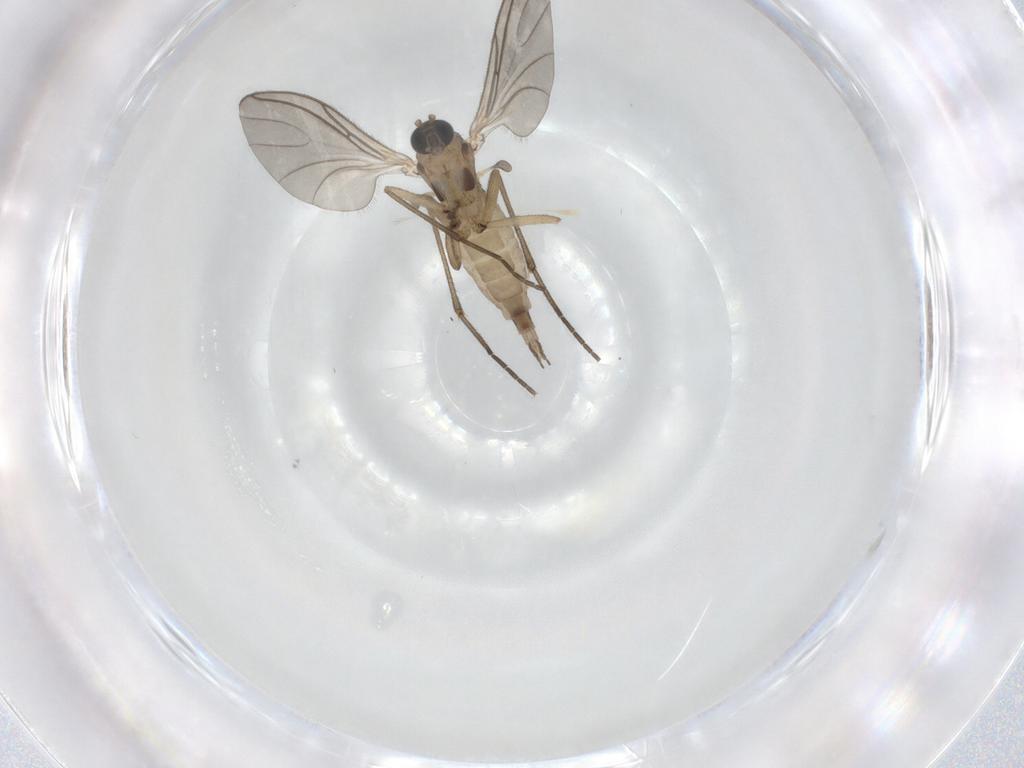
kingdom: Animalia
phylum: Arthropoda
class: Insecta
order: Diptera
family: Sciaridae
